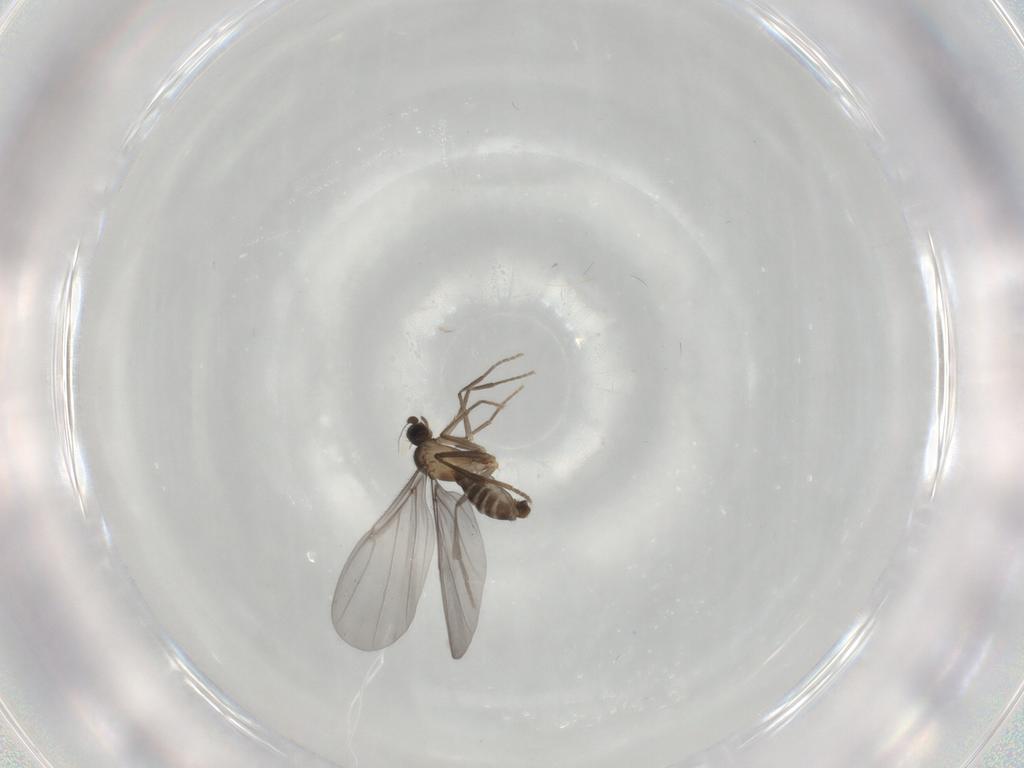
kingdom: Animalia
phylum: Arthropoda
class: Insecta
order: Diptera
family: Phoridae
